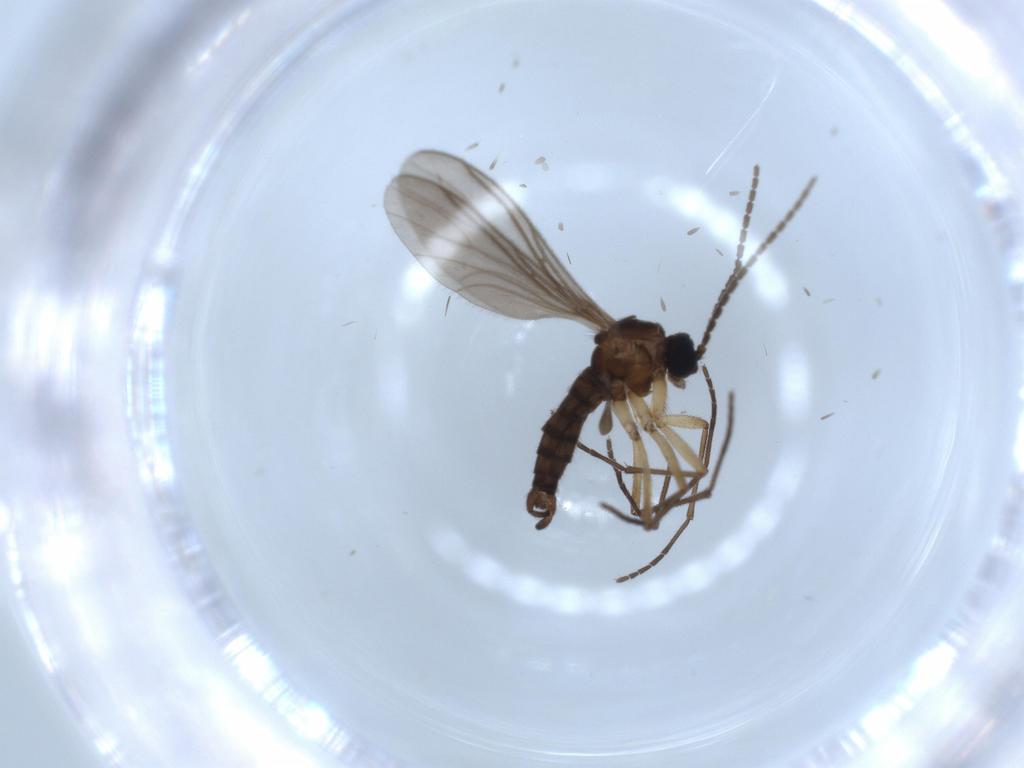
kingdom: Animalia
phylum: Arthropoda
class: Insecta
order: Diptera
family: Sciaridae
